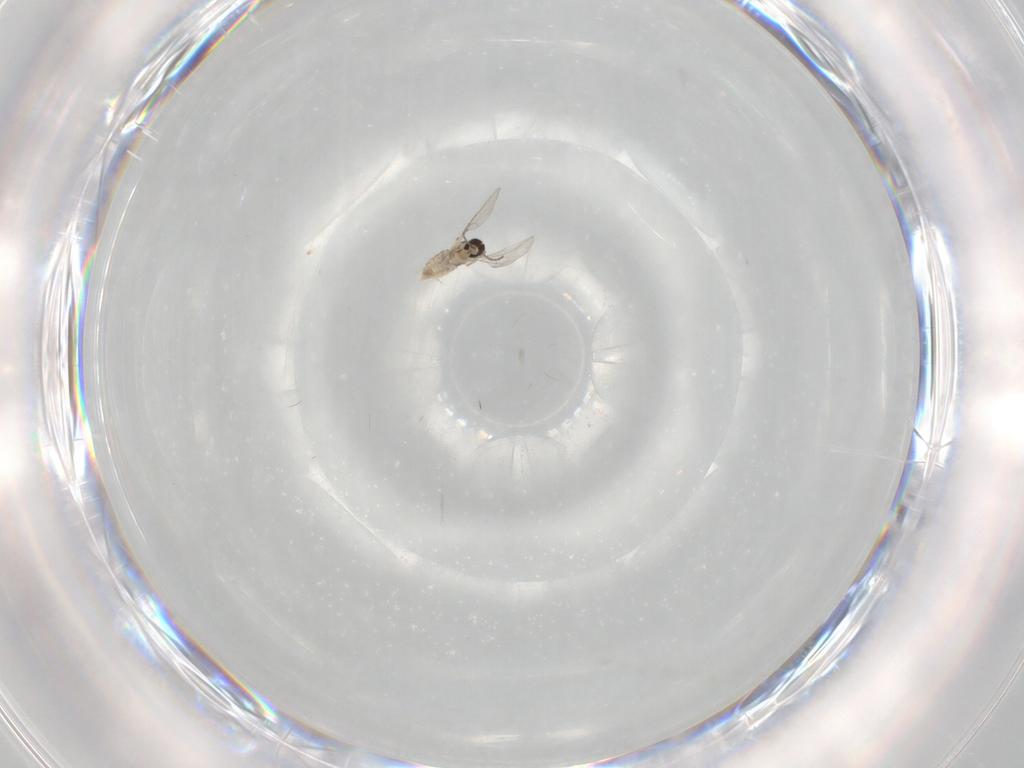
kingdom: Animalia
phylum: Arthropoda
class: Insecta
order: Diptera
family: Cecidomyiidae
